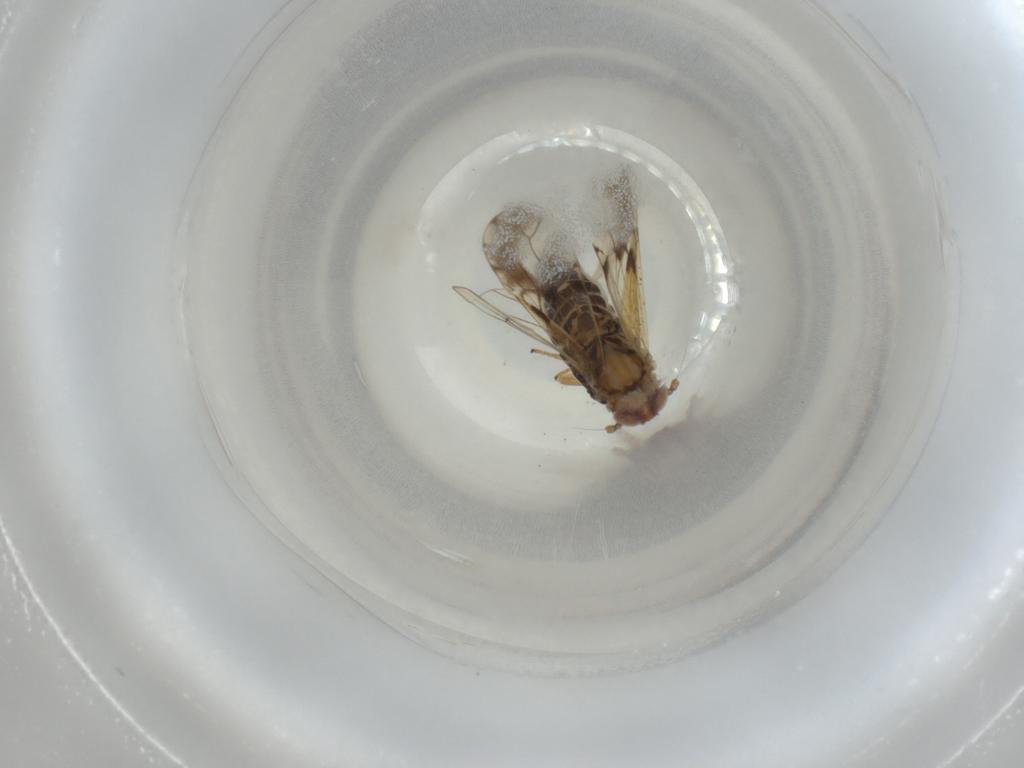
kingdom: Animalia
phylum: Arthropoda
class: Insecta
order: Hemiptera
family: Delphacidae
